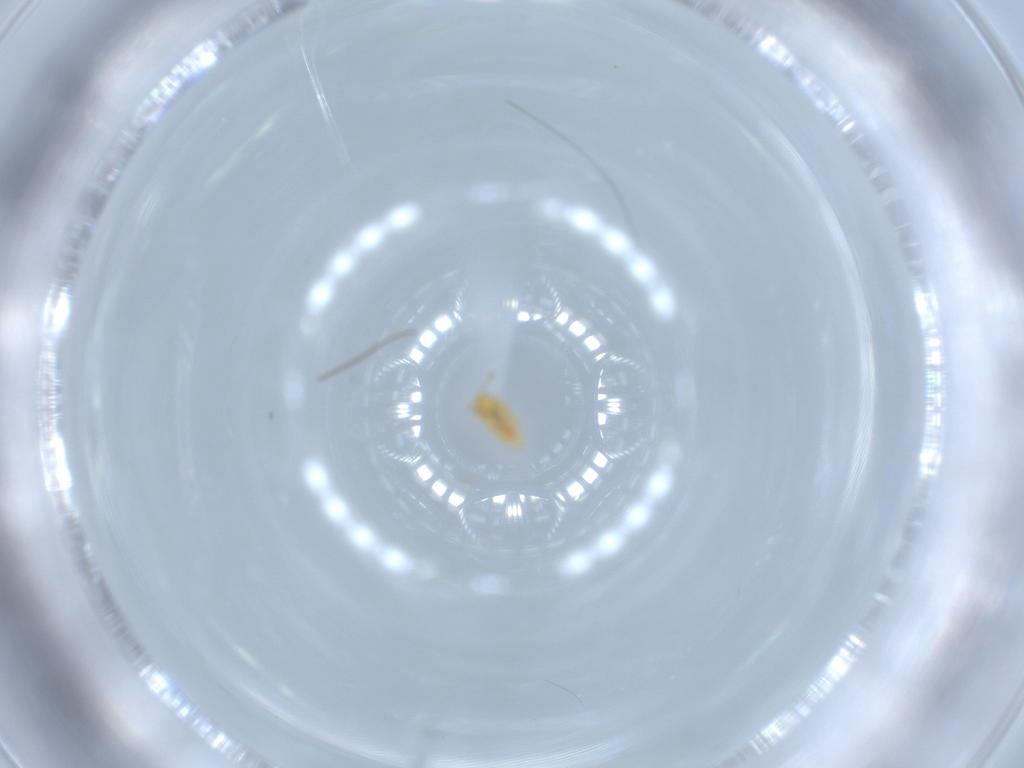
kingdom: Animalia
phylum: Arthropoda
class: Insecta
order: Hemiptera
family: Anthocoridae
